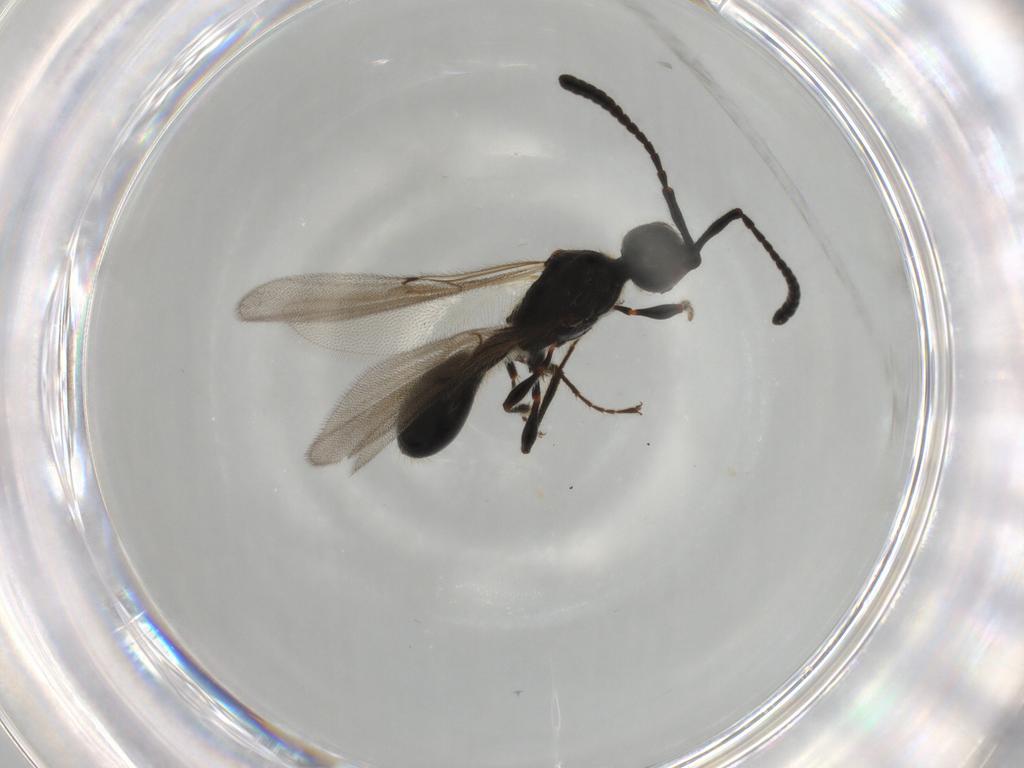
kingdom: Animalia
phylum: Arthropoda
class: Insecta
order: Hymenoptera
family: Diapriidae
